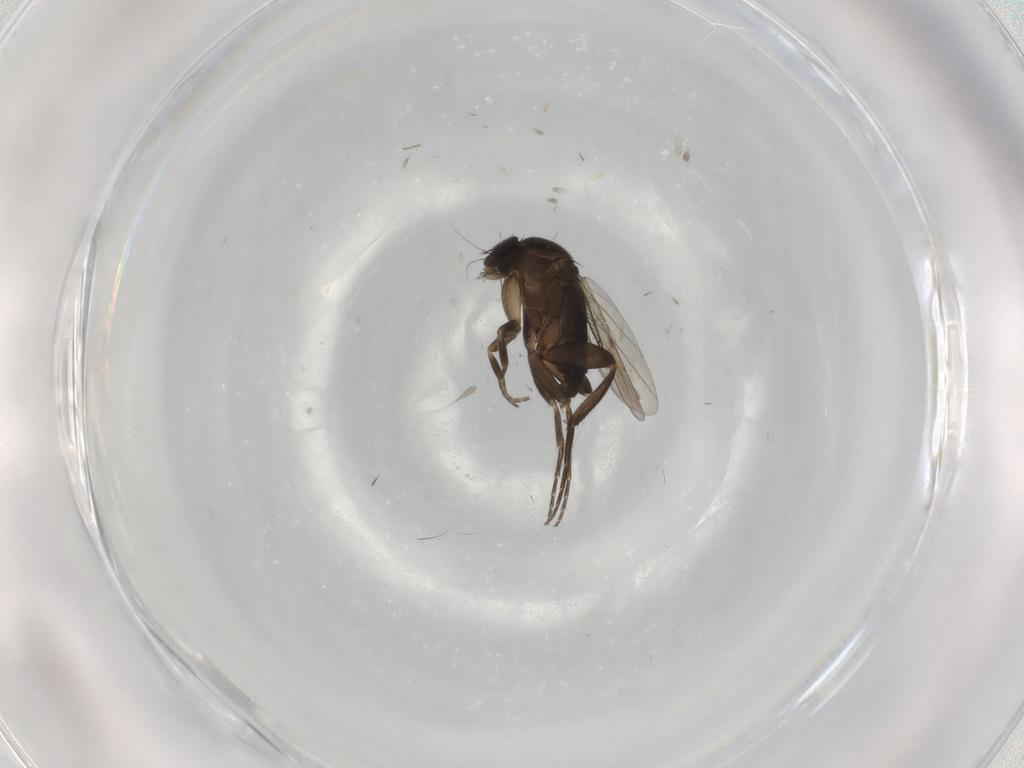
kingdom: Animalia
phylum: Arthropoda
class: Insecta
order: Diptera
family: Phoridae
